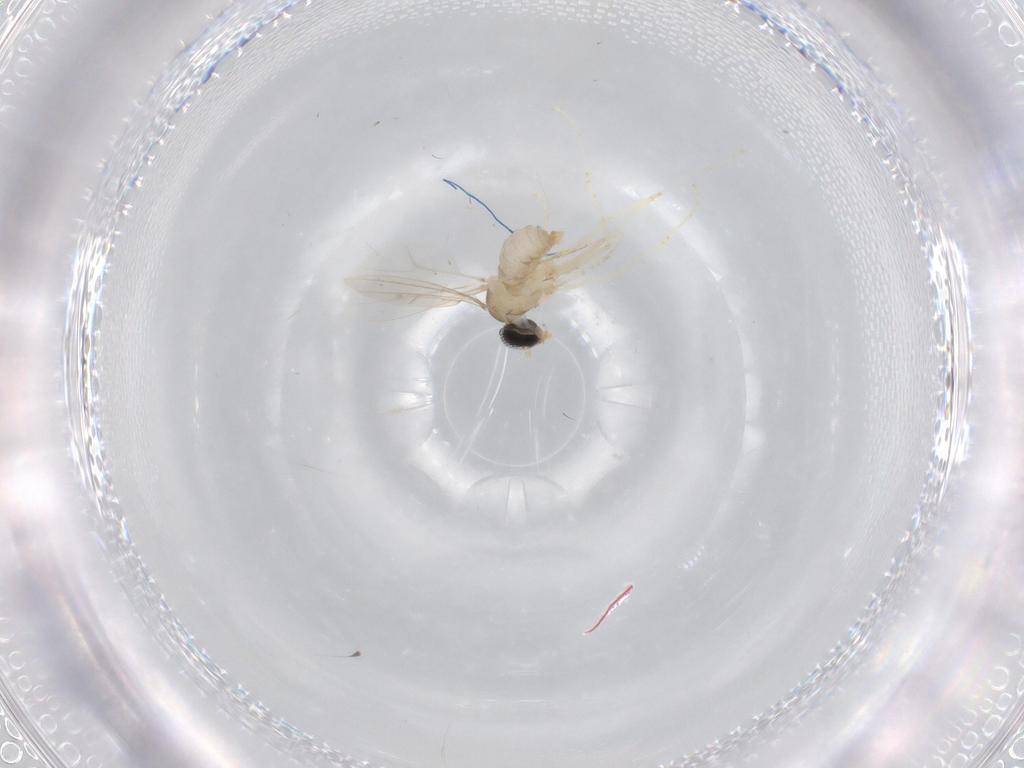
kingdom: Animalia
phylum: Arthropoda
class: Insecta
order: Diptera
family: Cecidomyiidae
